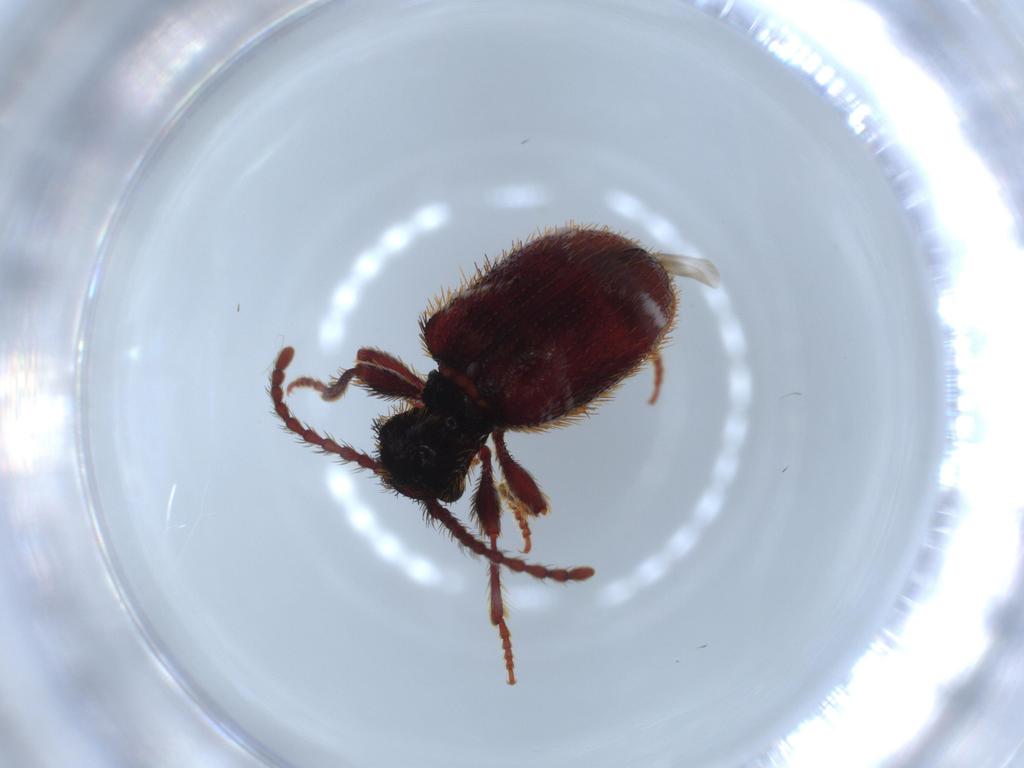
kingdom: Animalia
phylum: Arthropoda
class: Insecta
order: Coleoptera
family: Ptinidae
